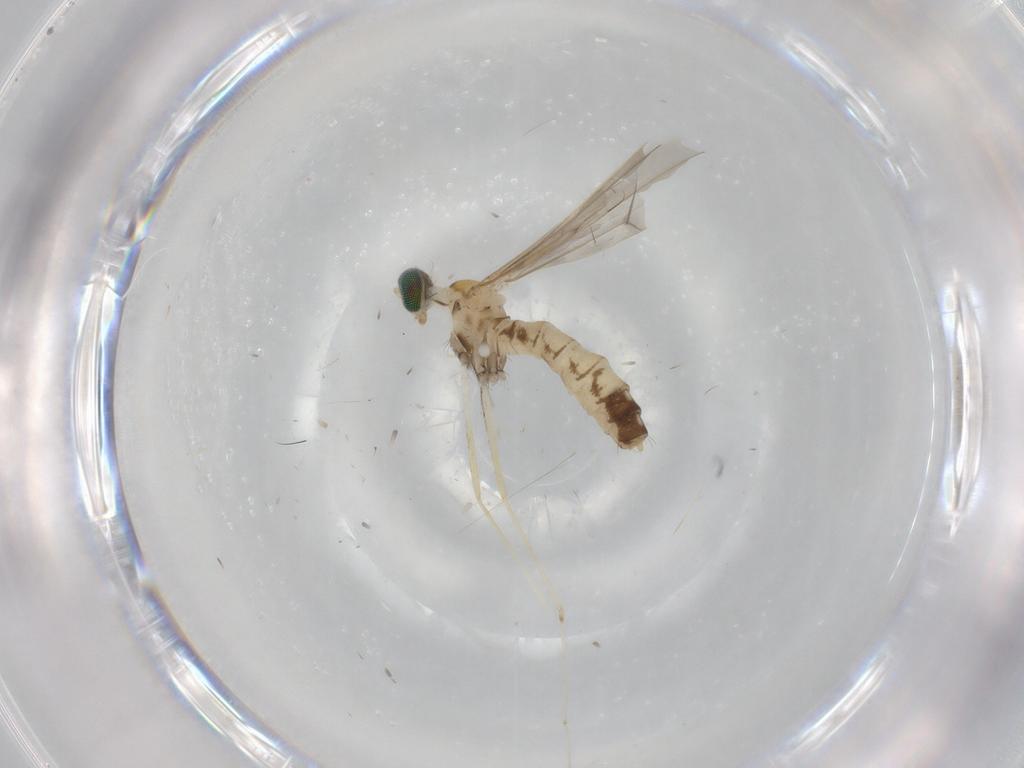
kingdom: Animalia
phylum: Arthropoda
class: Insecta
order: Diptera
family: Cecidomyiidae
